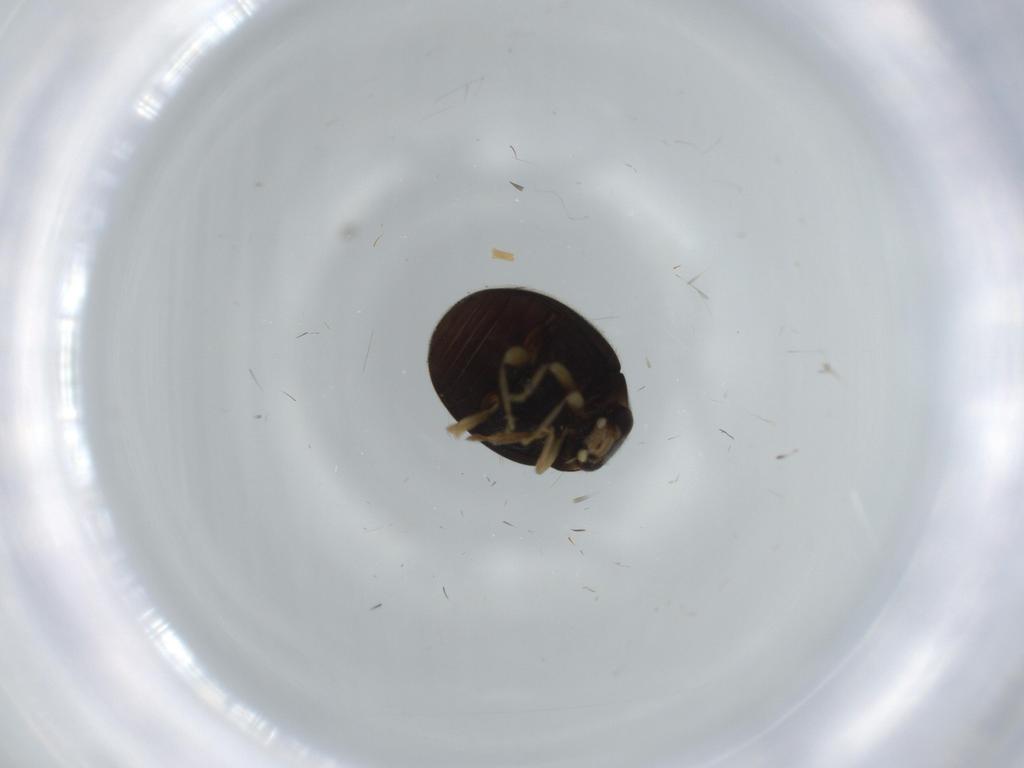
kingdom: Animalia
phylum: Arthropoda
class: Insecta
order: Coleoptera
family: Coccinellidae
